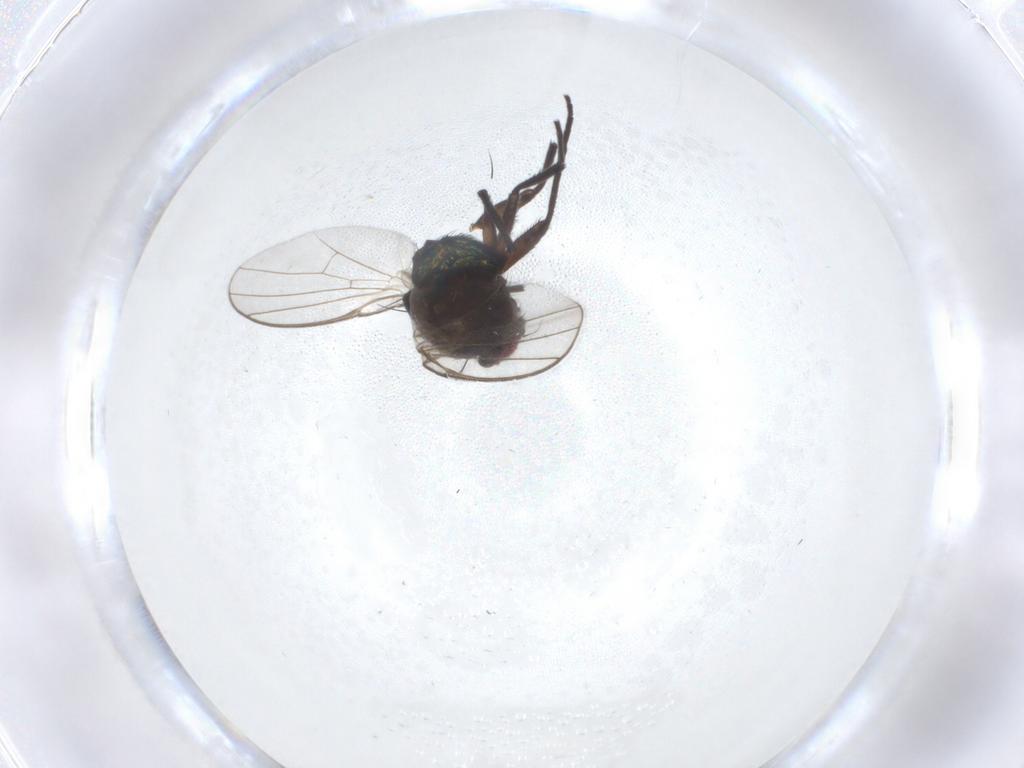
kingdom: Animalia
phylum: Arthropoda
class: Insecta
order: Diptera
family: Agromyzidae
